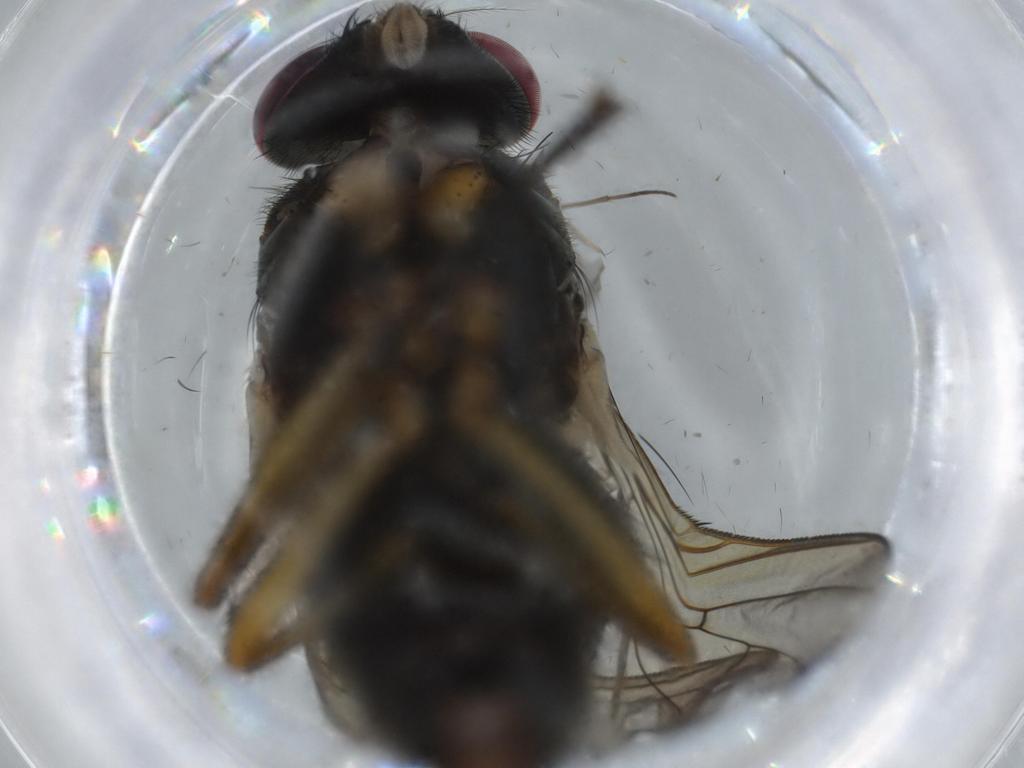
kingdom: Animalia
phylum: Arthropoda
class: Insecta
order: Diptera
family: Muscidae
